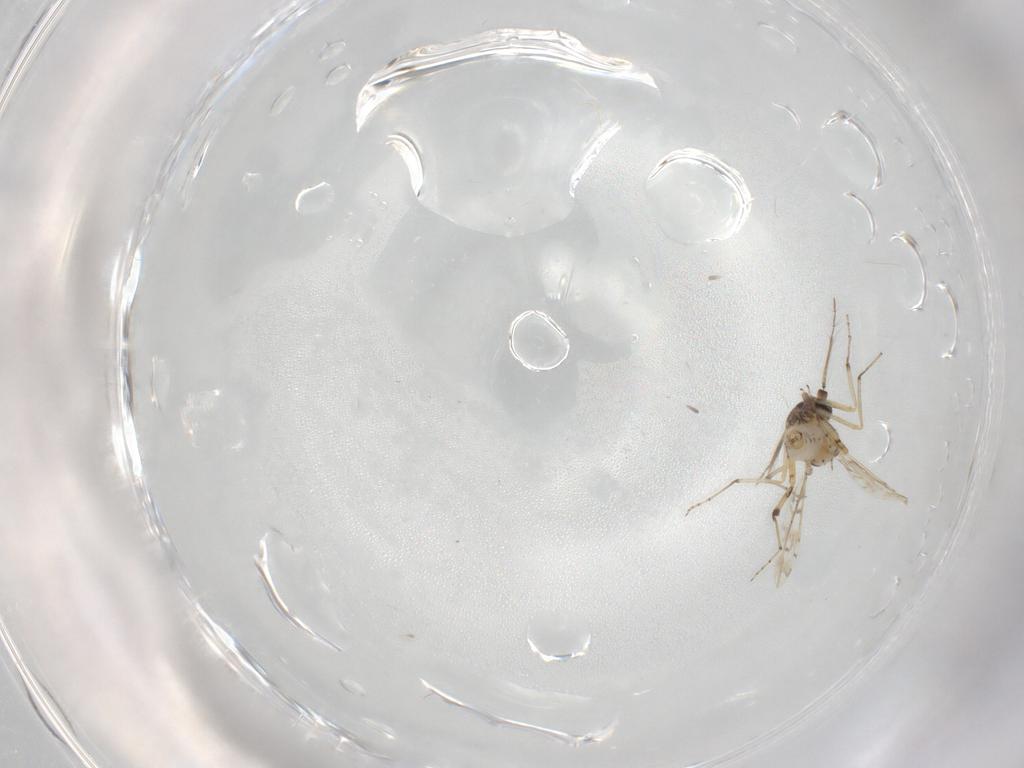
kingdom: Animalia
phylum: Arthropoda
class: Insecta
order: Diptera
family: Ceratopogonidae
